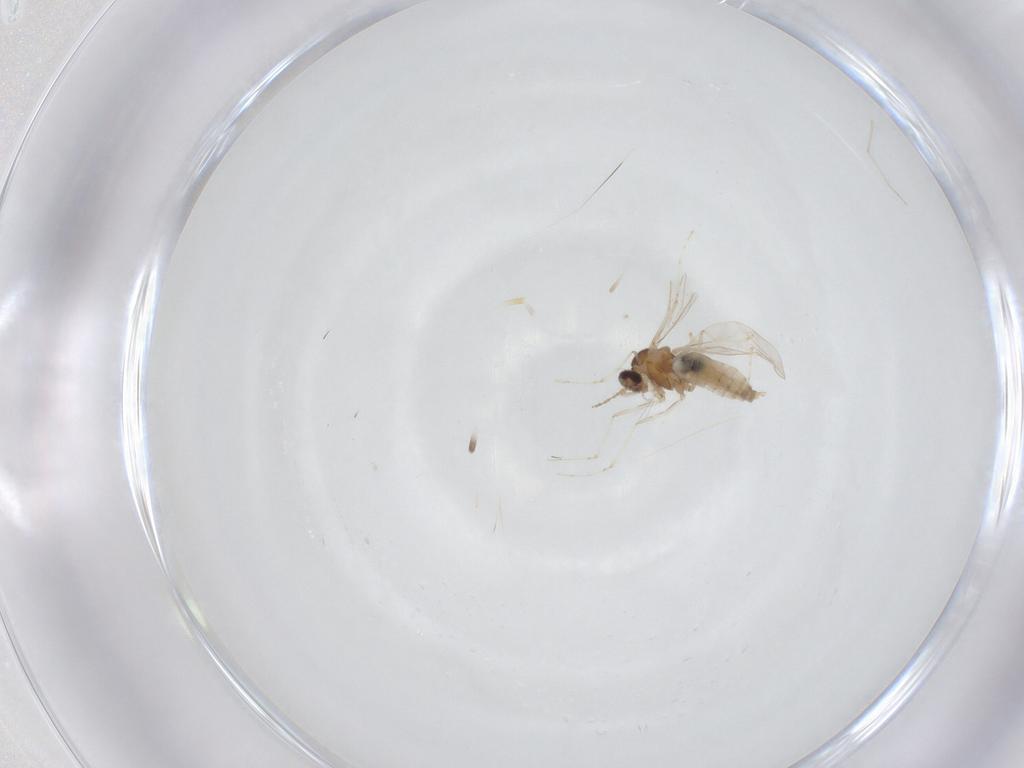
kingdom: Animalia
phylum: Arthropoda
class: Insecta
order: Diptera
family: Cecidomyiidae
